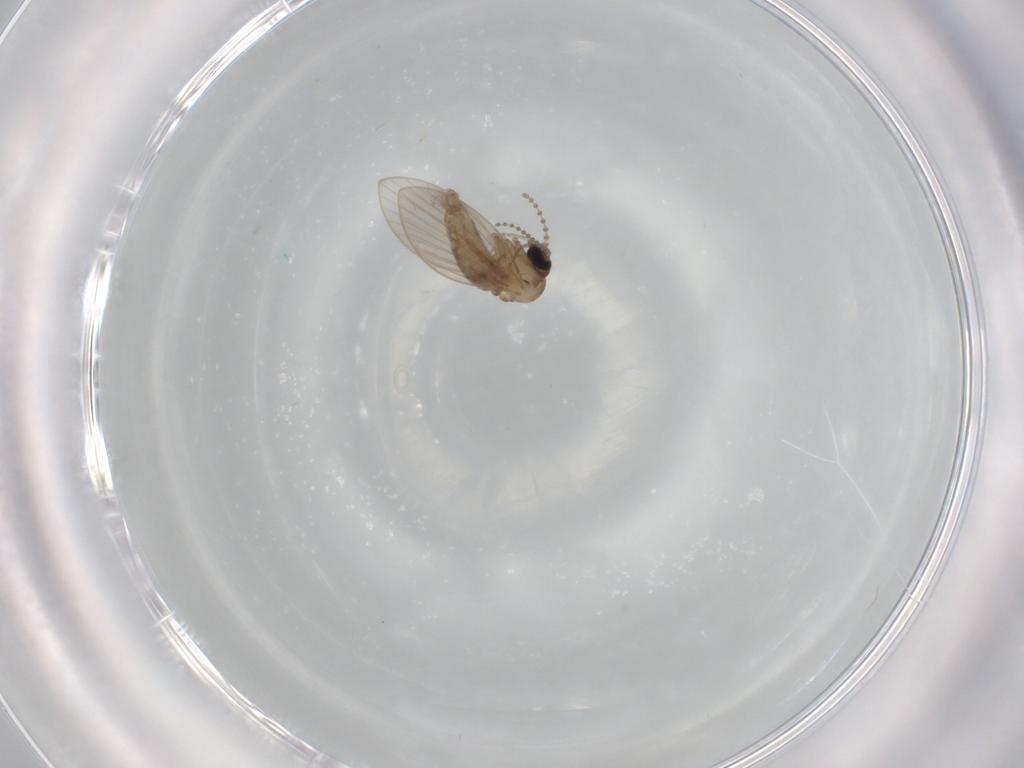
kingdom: Animalia
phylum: Arthropoda
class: Insecta
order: Diptera
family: Psychodidae
